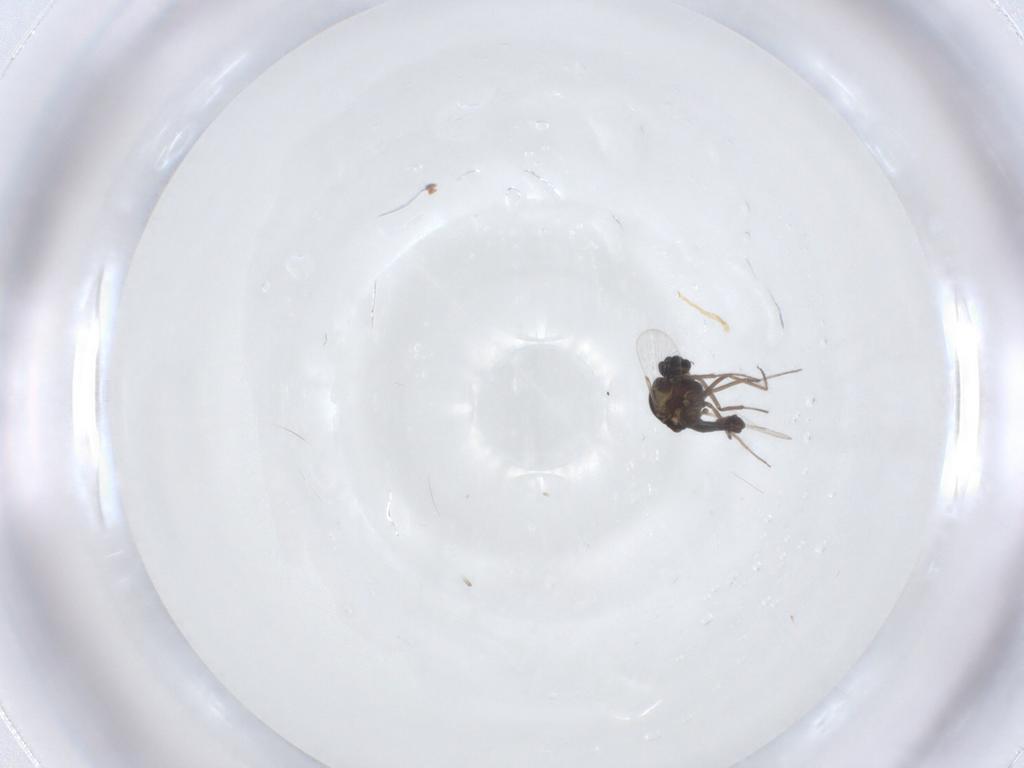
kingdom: Animalia
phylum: Arthropoda
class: Insecta
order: Diptera
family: Ceratopogonidae
